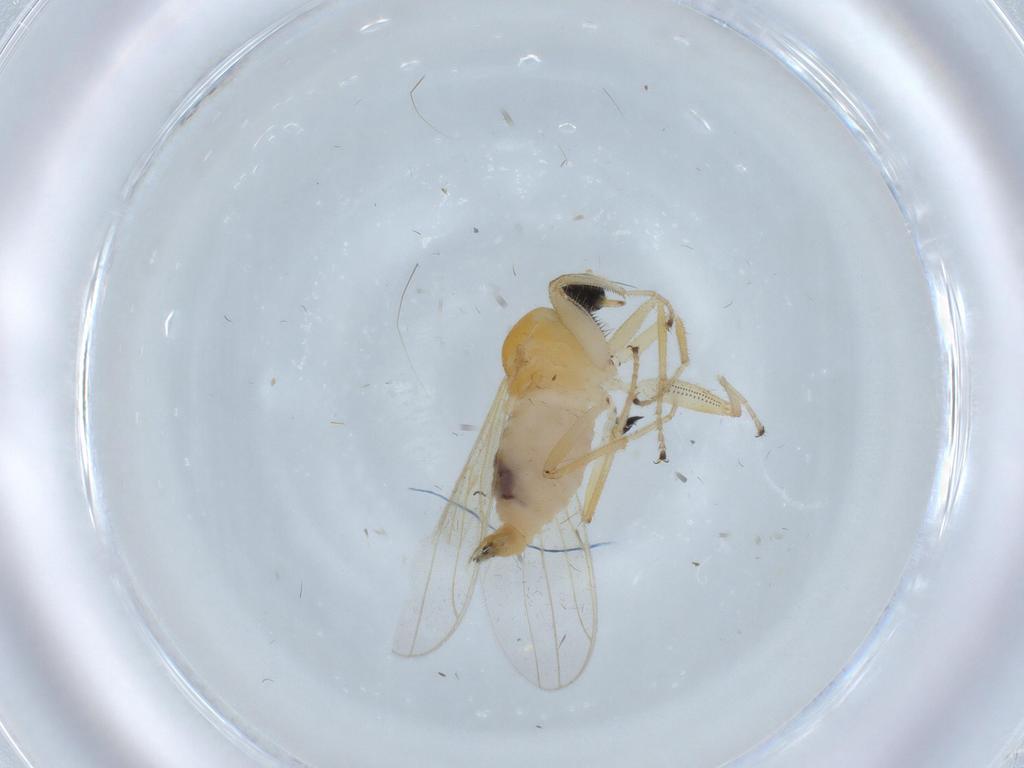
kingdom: Animalia
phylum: Arthropoda
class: Insecta
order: Diptera
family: Hybotidae
